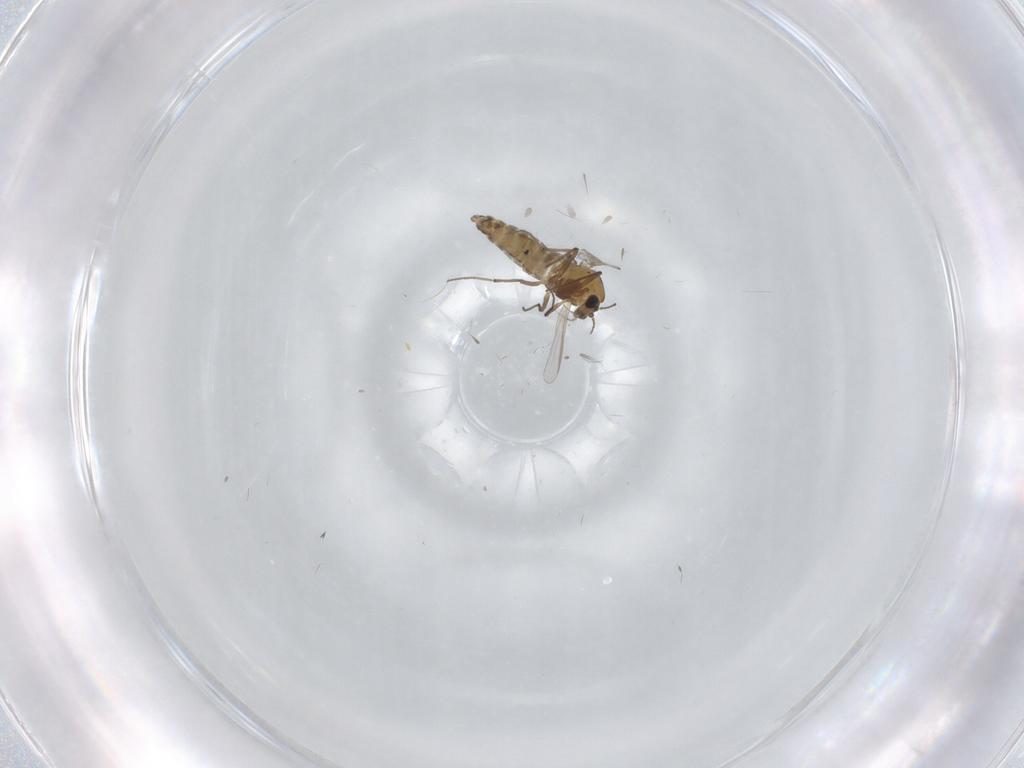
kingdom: Animalia
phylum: Arthropoda
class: Insecta
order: Diptera
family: Chironomidae
